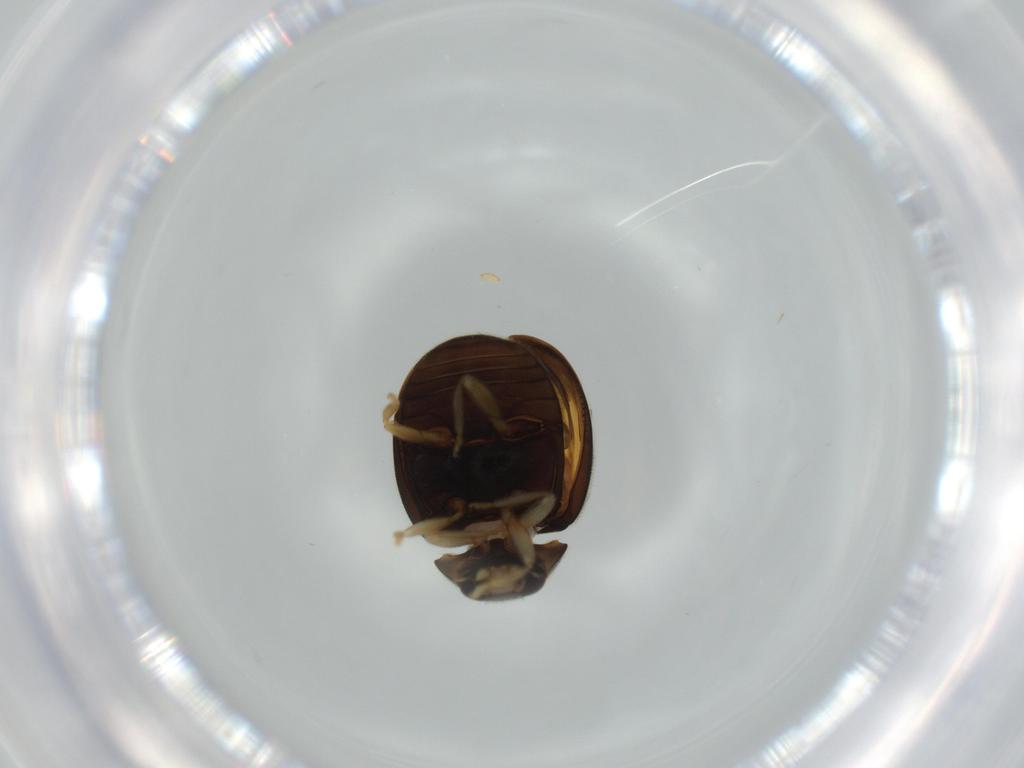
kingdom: Animalia
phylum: Arthropoda
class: Insecta
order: Coleoptera
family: Coccinellidae
